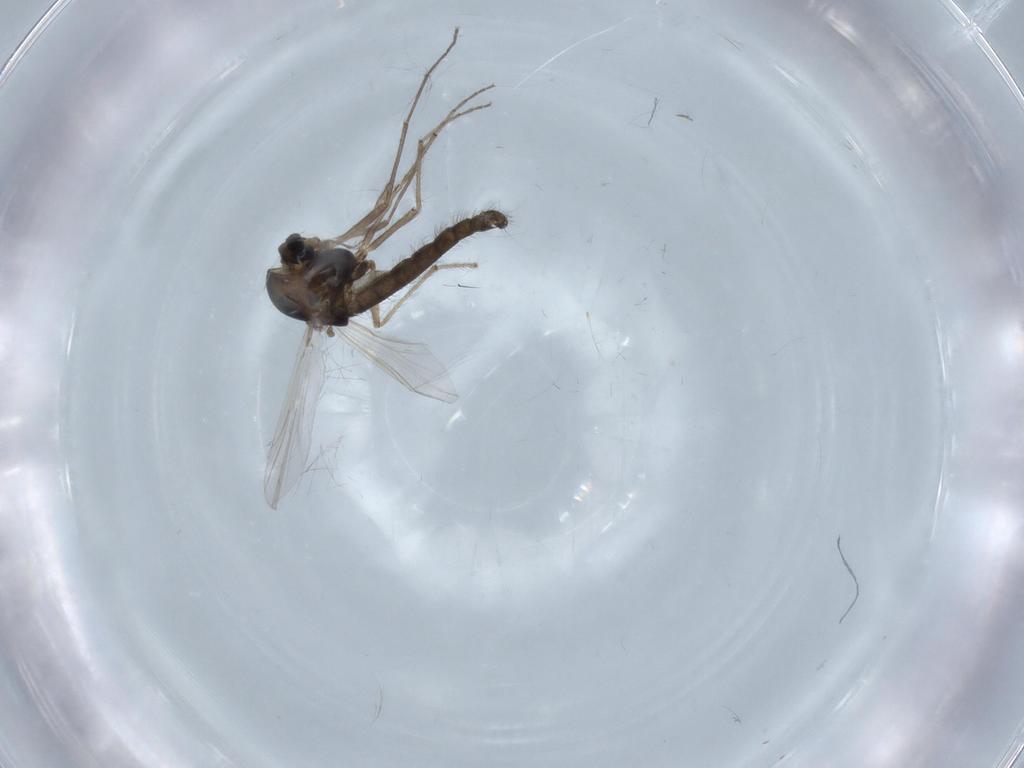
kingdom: Animalia
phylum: Arthropoda
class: Insecta
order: Diptera
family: Chironomidae
